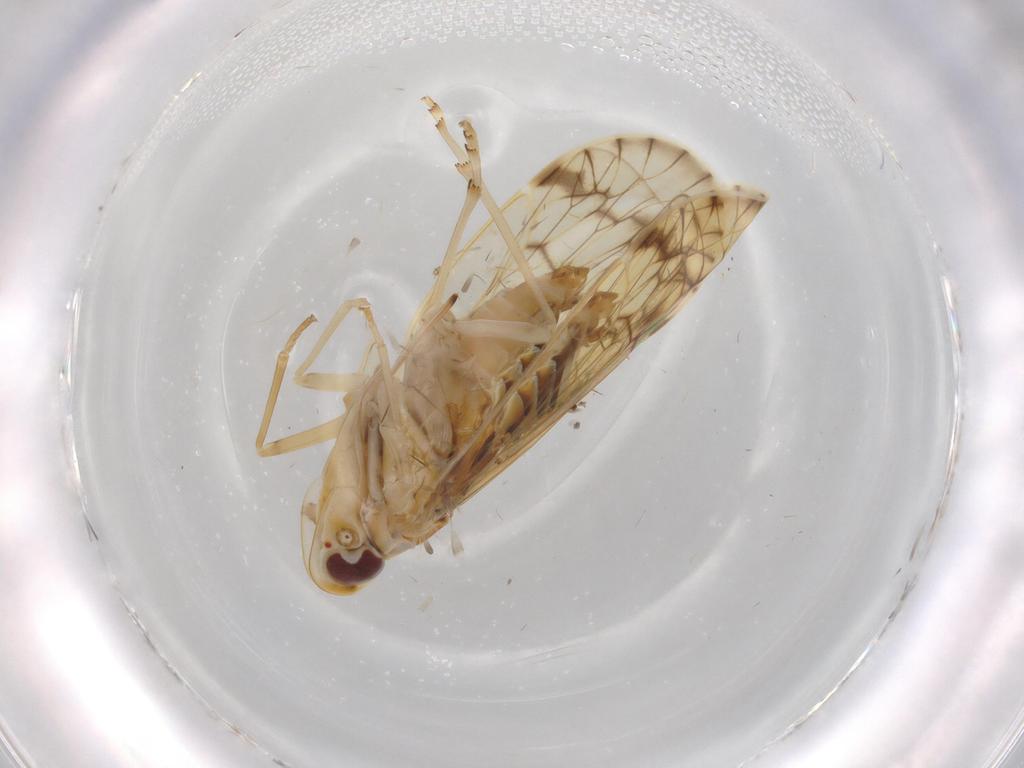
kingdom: Animalia
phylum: Arthropoda
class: Insecta
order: Hemiptera
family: Kinnaridae
